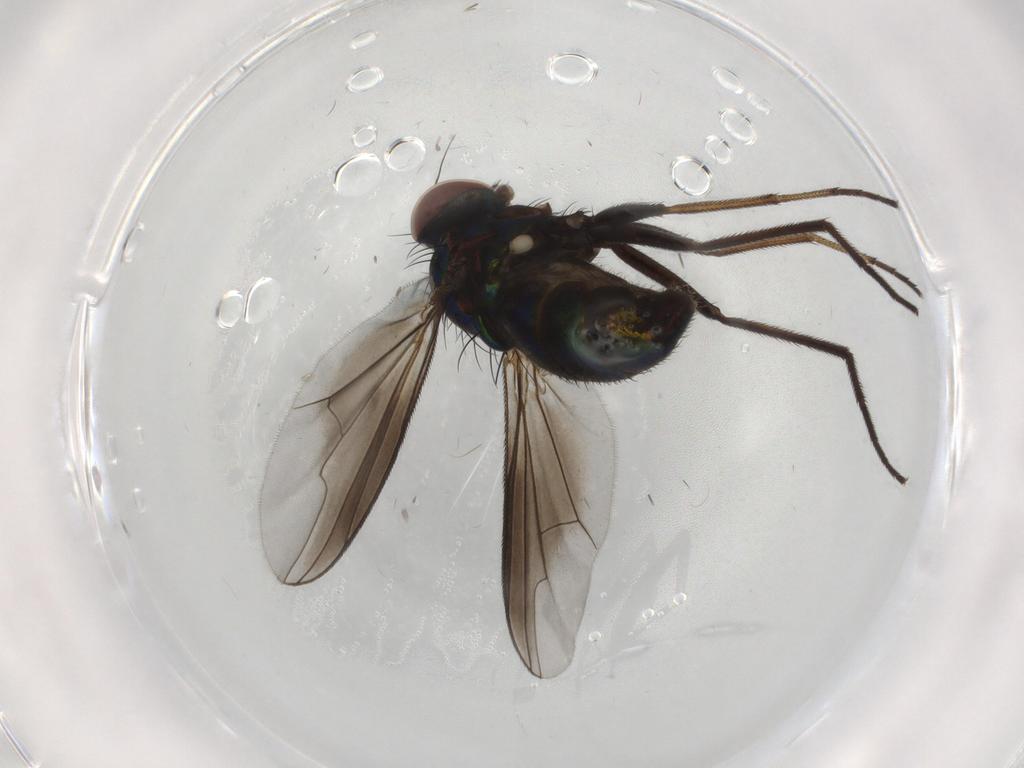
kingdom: Animalia
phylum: Arthropoda
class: Insecta
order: Diptera
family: Dolichopodidae
